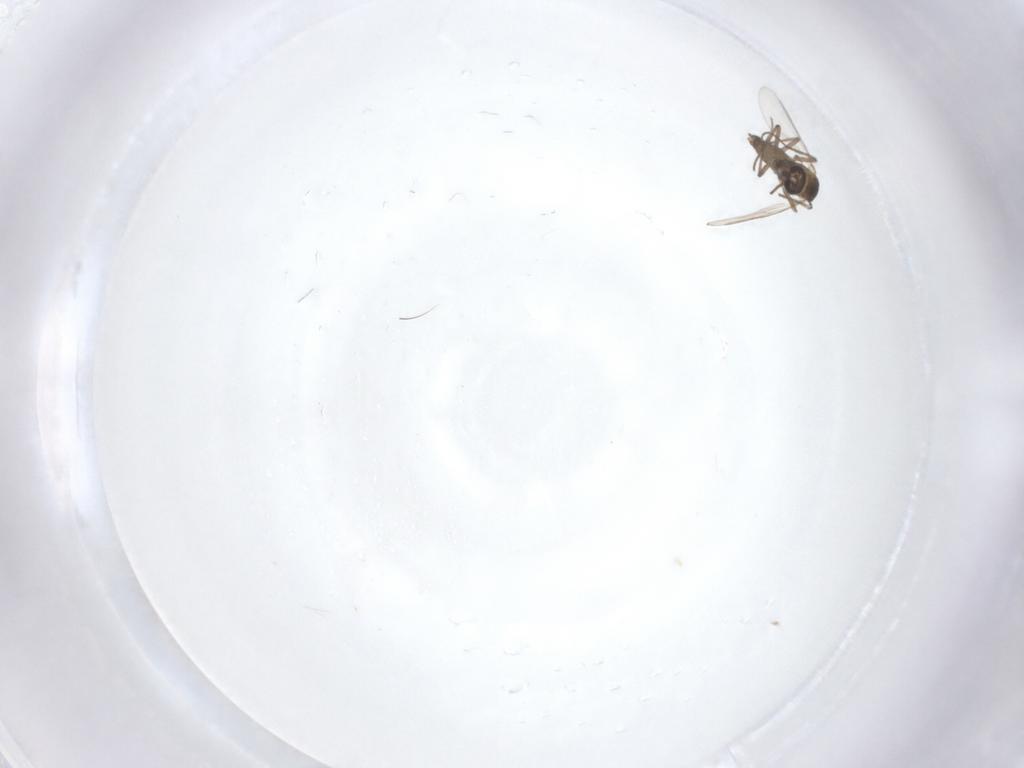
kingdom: Animalia
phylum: Arthropoda
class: Insecta
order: Diptera
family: Chironomidae
